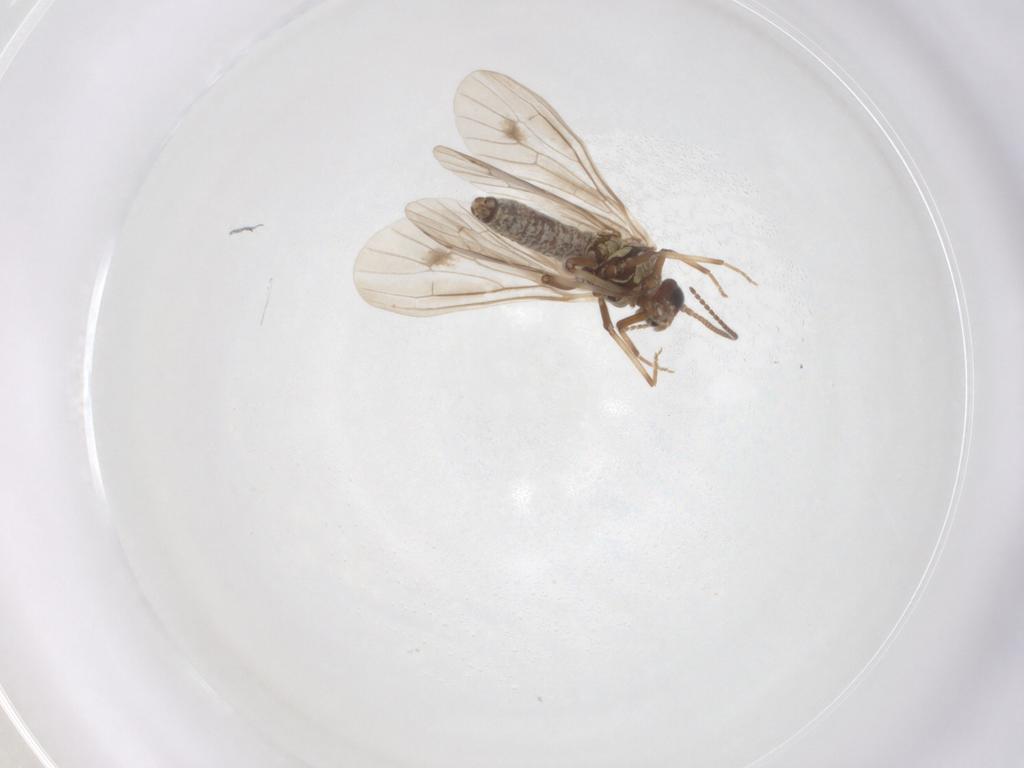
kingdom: Animalia
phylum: Arthropoda
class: Insecta
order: Neuroptera
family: Coniopterygidae
